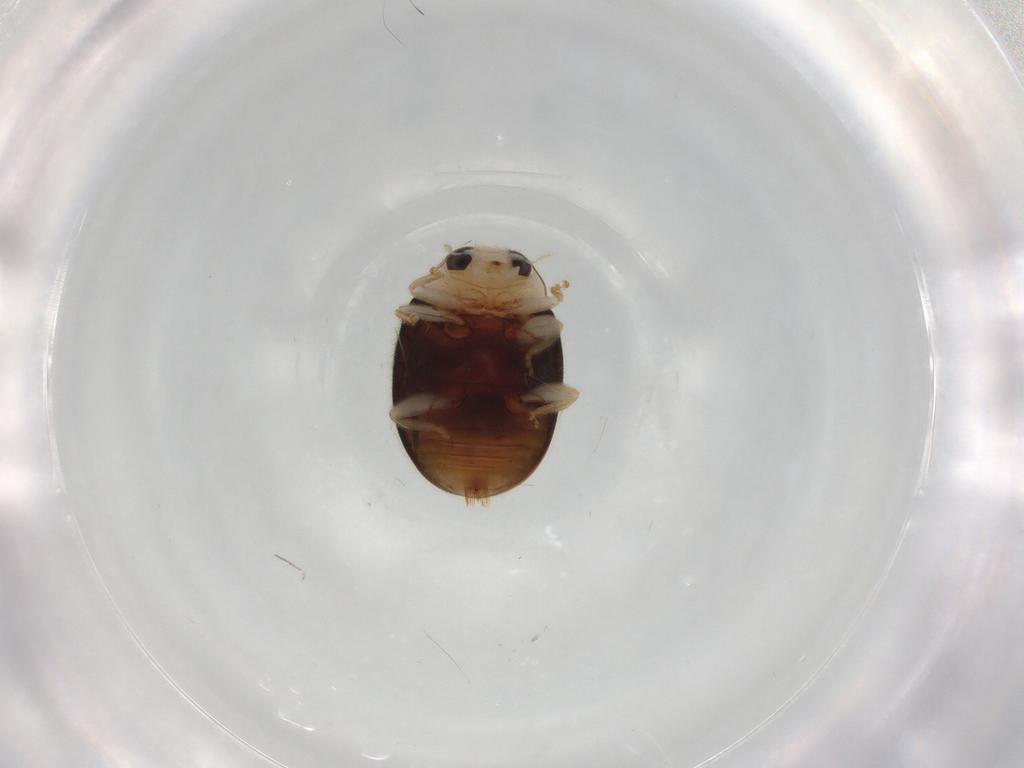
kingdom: Animalia
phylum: Arthropoda
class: Insecta
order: Coleoptera
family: Coccinellidae
